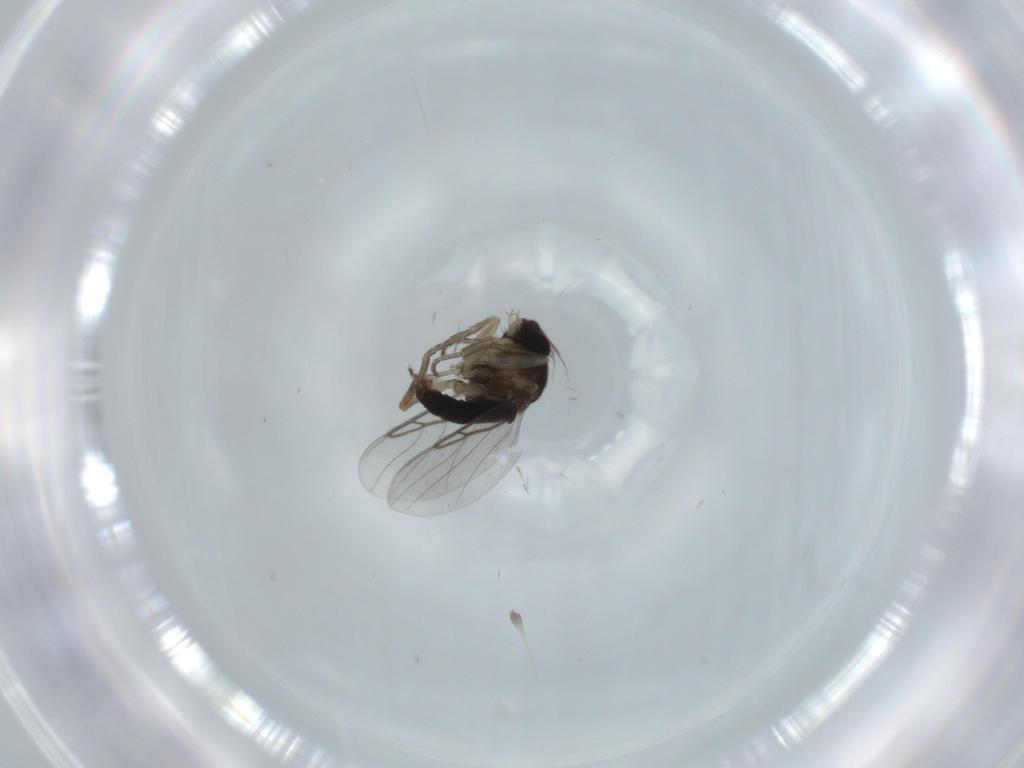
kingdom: Animalia
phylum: Arthropoda
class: Insecta
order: Diptera
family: Phoridae
